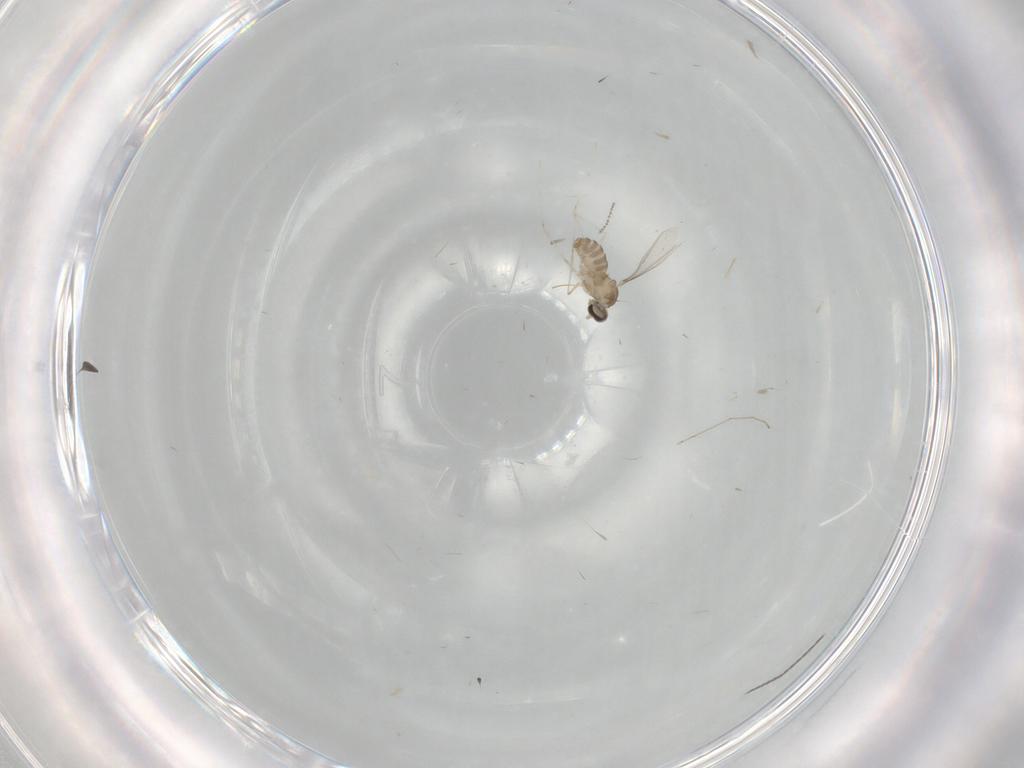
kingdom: Animalia
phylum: Arthropoda
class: Insecta
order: Diptera
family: Cecidomyiidae
